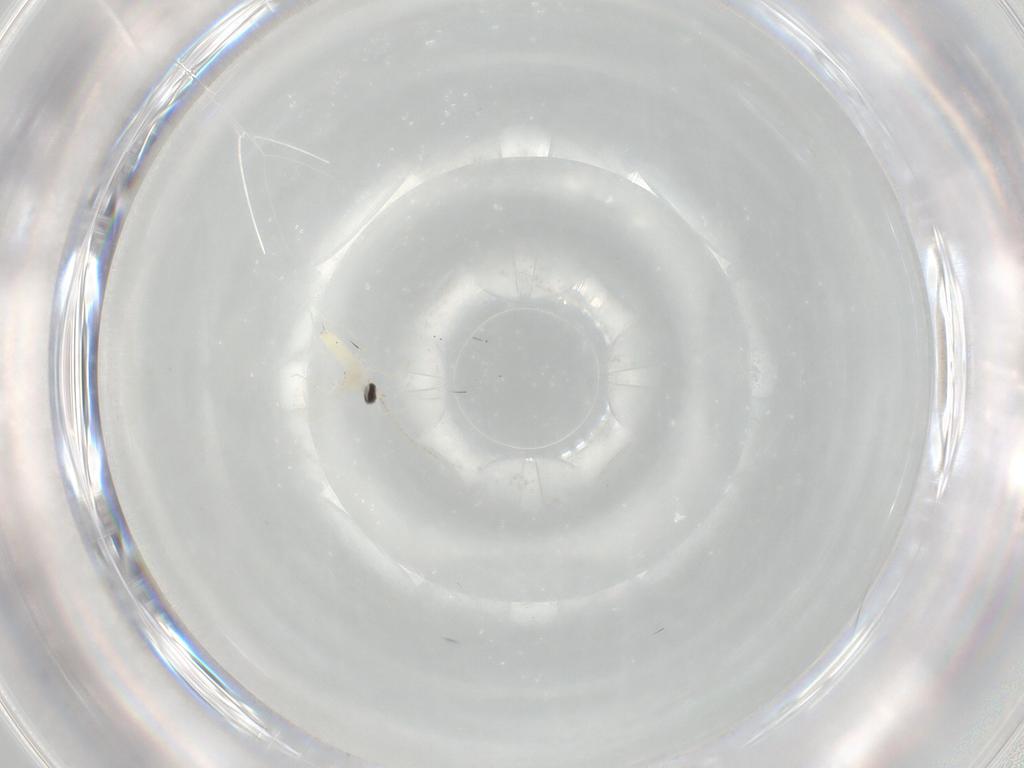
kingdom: Animalia
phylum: Arthropoda
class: Insecta
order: Diptera
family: Cecidomyiidae
